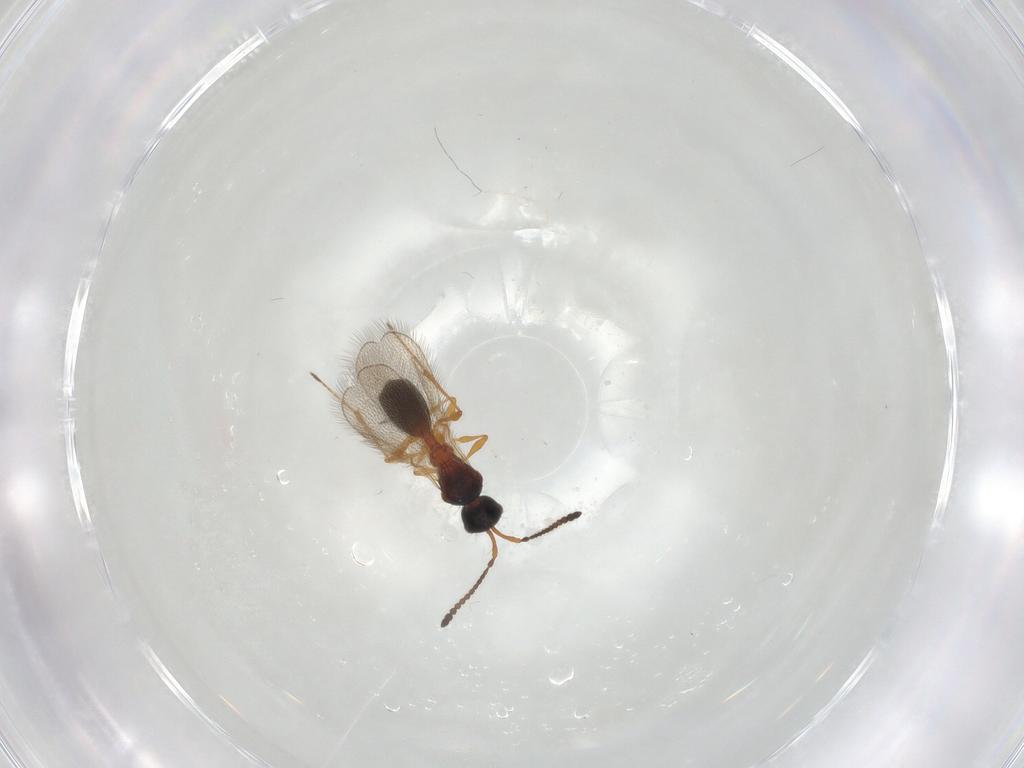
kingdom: Animalia
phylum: Arthropoda
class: Insecta
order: Hymenoptera
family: Diapriidae
